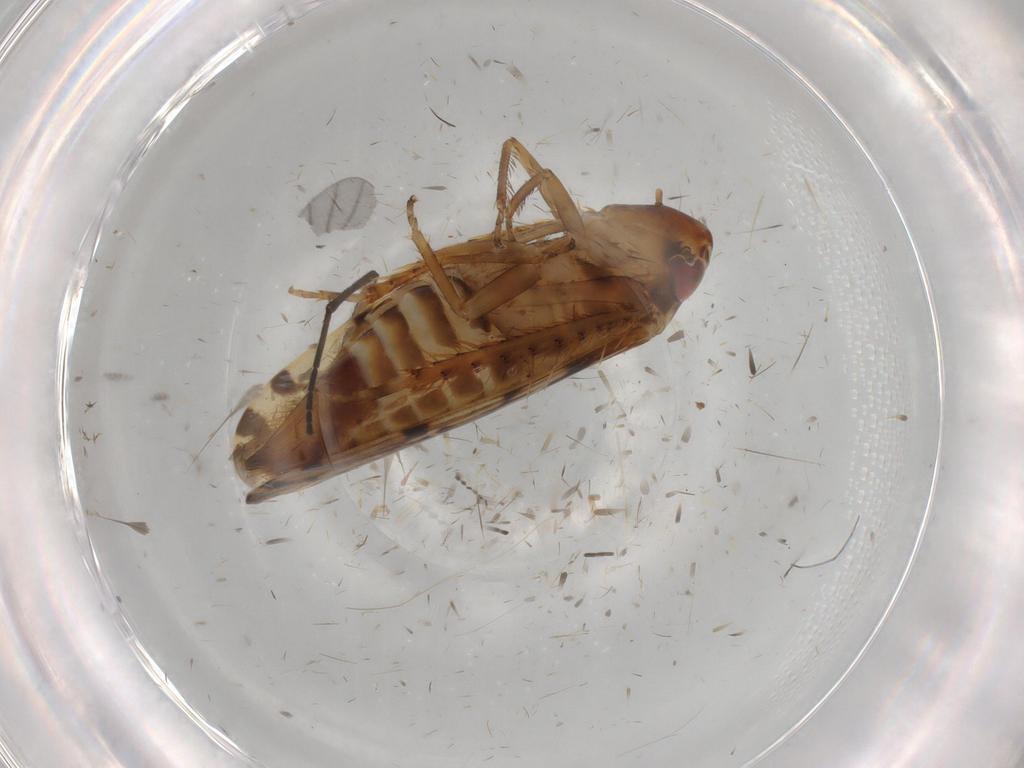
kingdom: Animalia
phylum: Arthropoda
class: Insecta
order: Hemiptera
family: Cicadellidae
